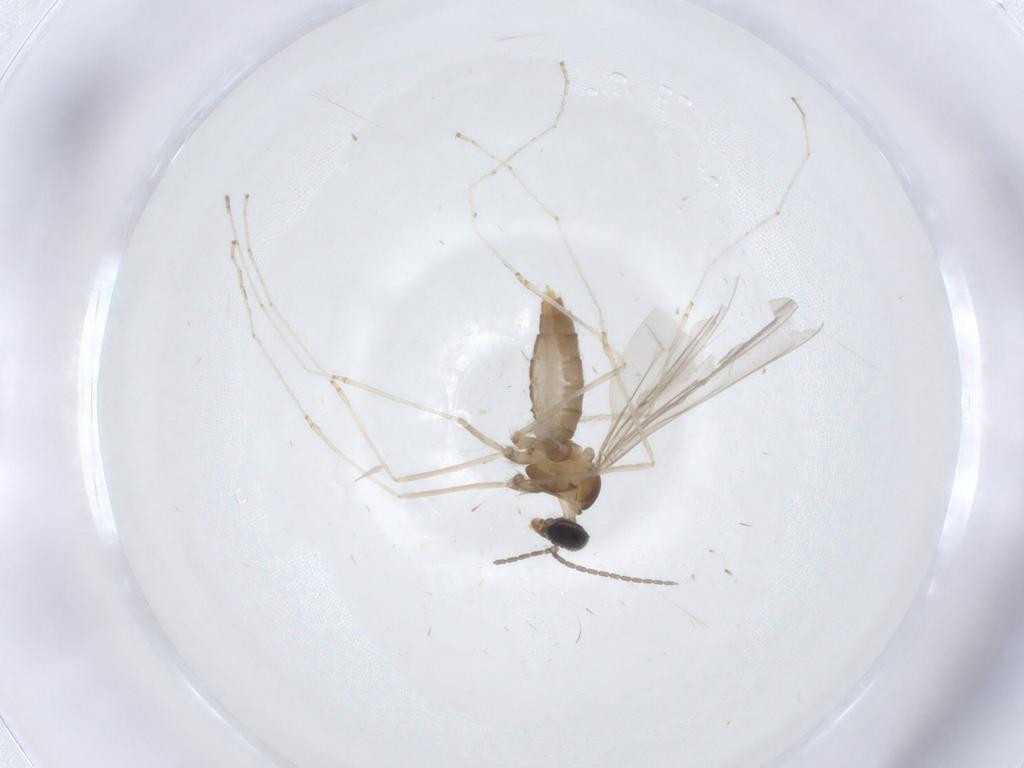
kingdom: Animalia
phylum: Arthropoda
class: Insecta
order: Diptera
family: Cecidomyiidae
